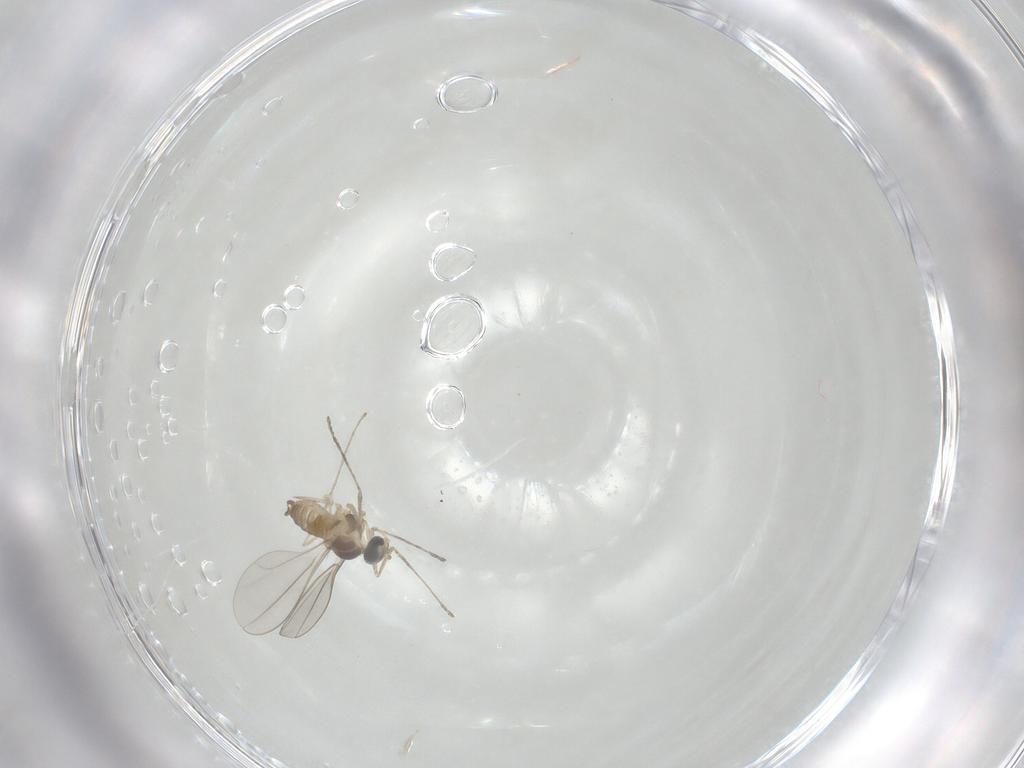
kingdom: Animalia
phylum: Arthropoda
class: Insecta
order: Diptera
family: Cecidomyiidae
